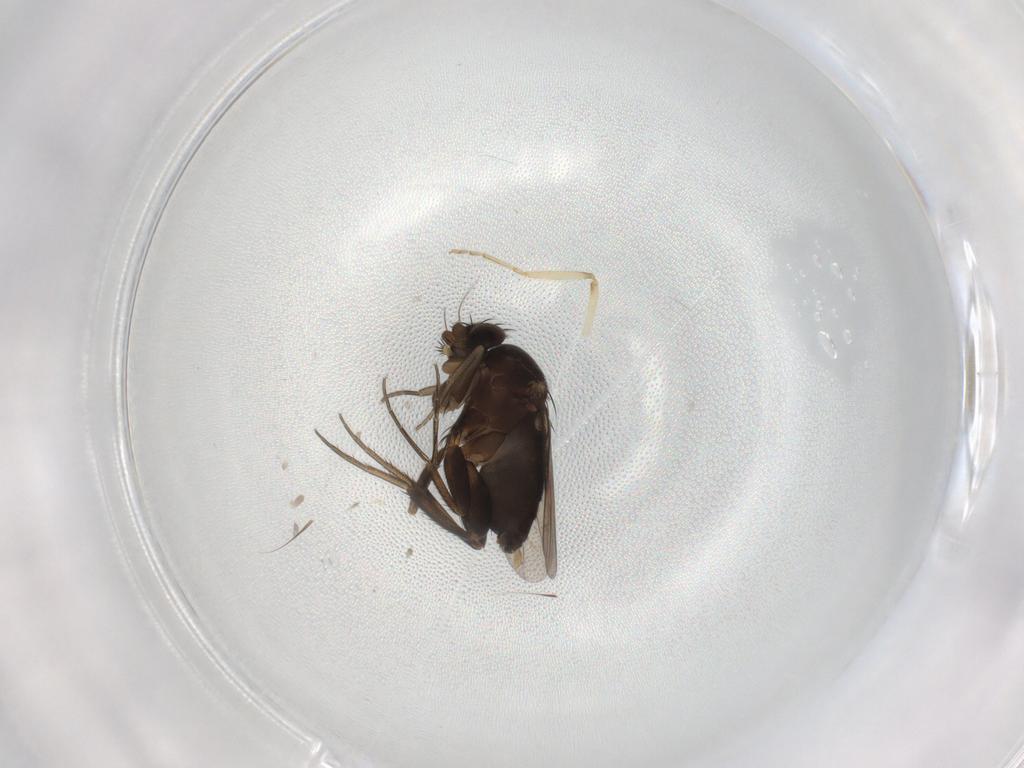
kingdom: Animalia
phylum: Arthropoda
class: Insecta
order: Diptera
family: Phoridae
